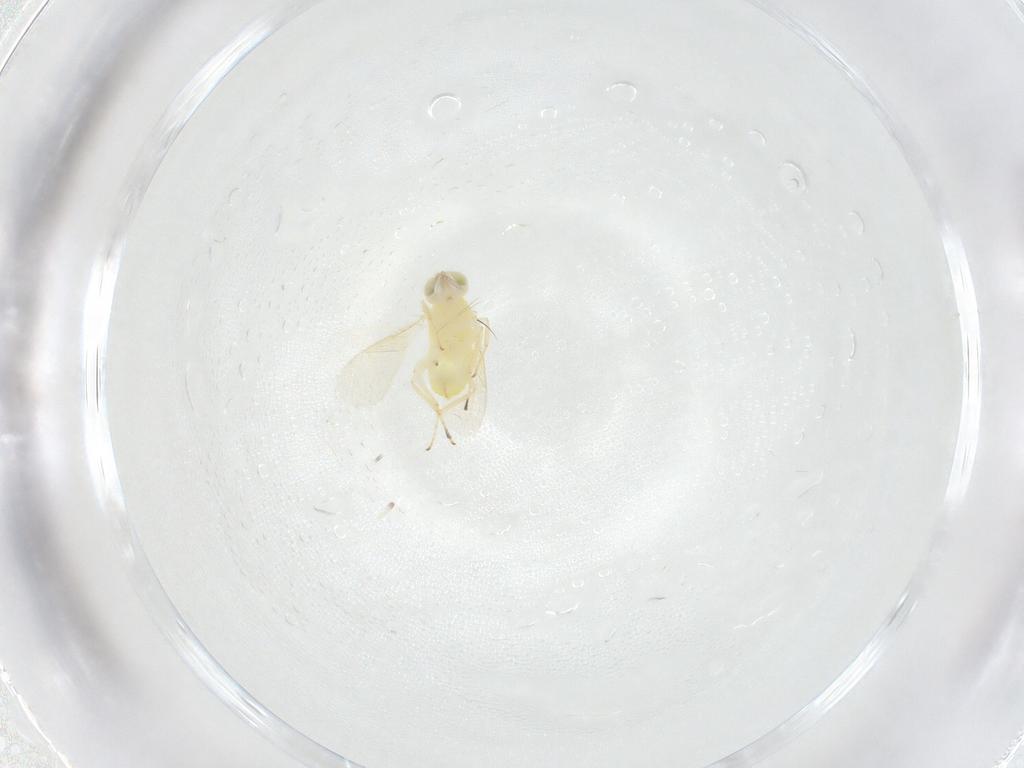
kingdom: Animalia
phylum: Arthropoda
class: Insecta
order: Hymenoptera
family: Aphelinidae
